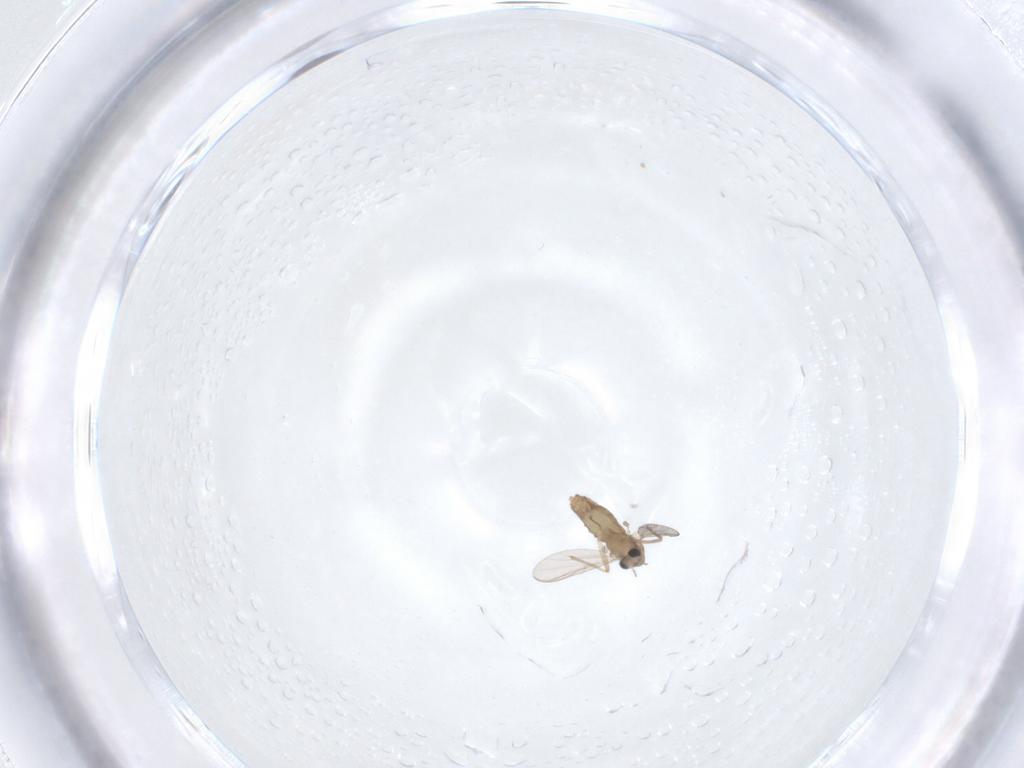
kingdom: Animalia
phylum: Arthropoda
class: Insecta
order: Diptera
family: Chironomidae
